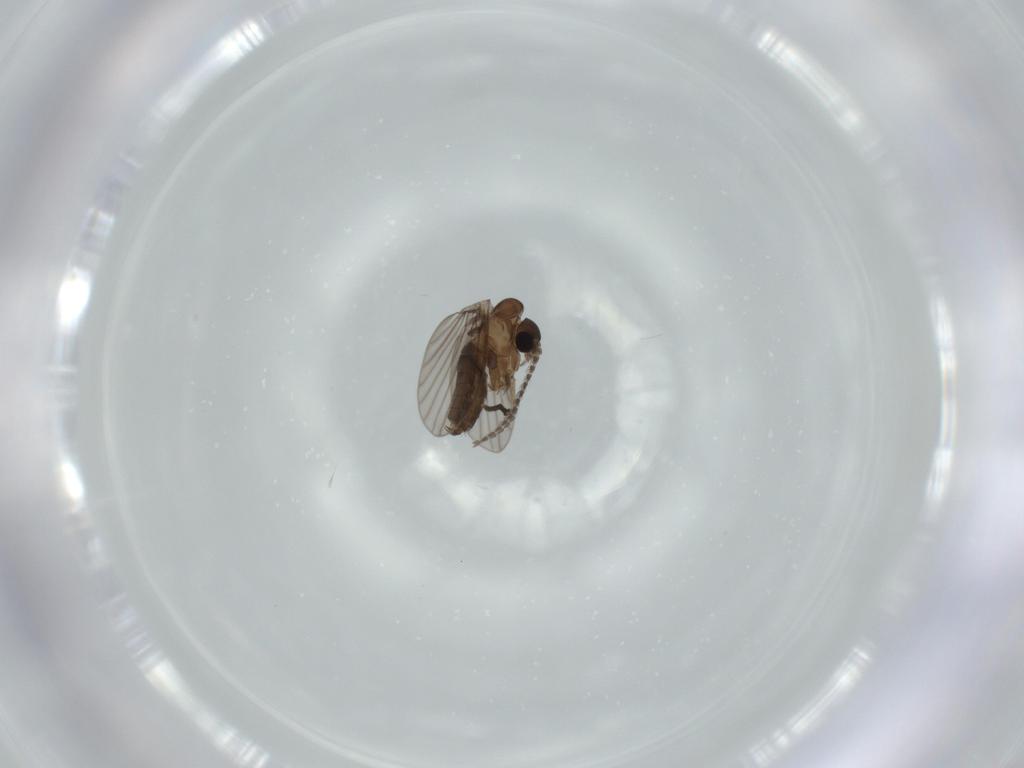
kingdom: Animalia
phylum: Arthropoda
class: Insecta
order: Diptera
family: Psychodidae
